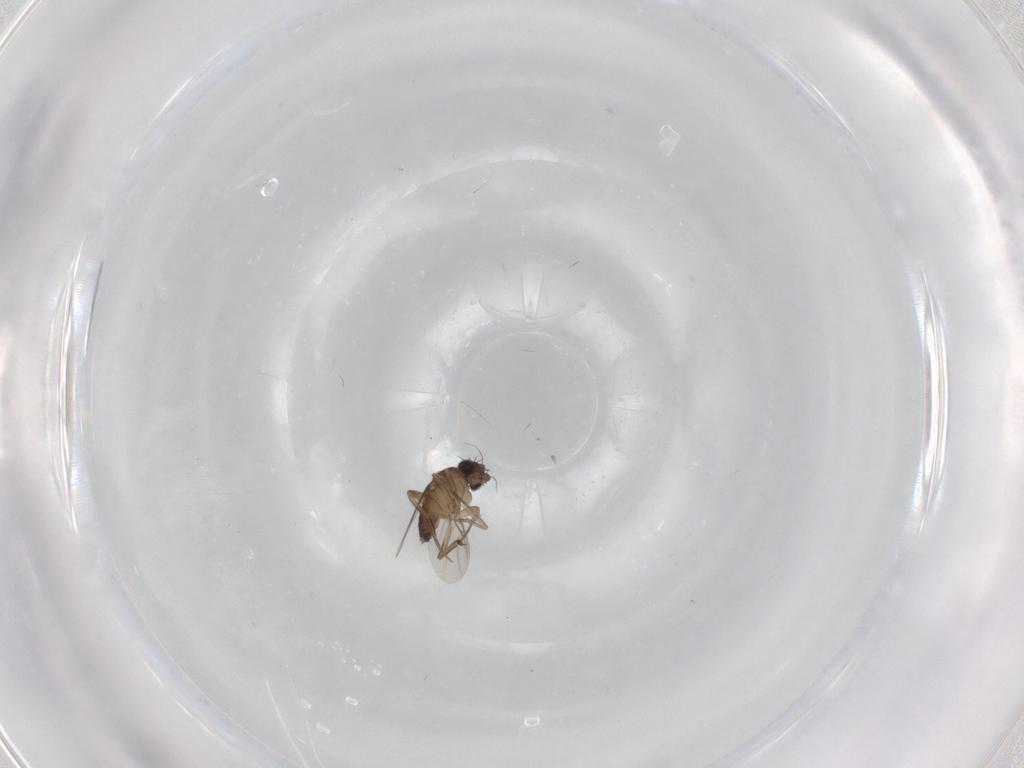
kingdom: Animalia
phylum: Arthropoda
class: Insecta
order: Diptera
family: Phoridae
